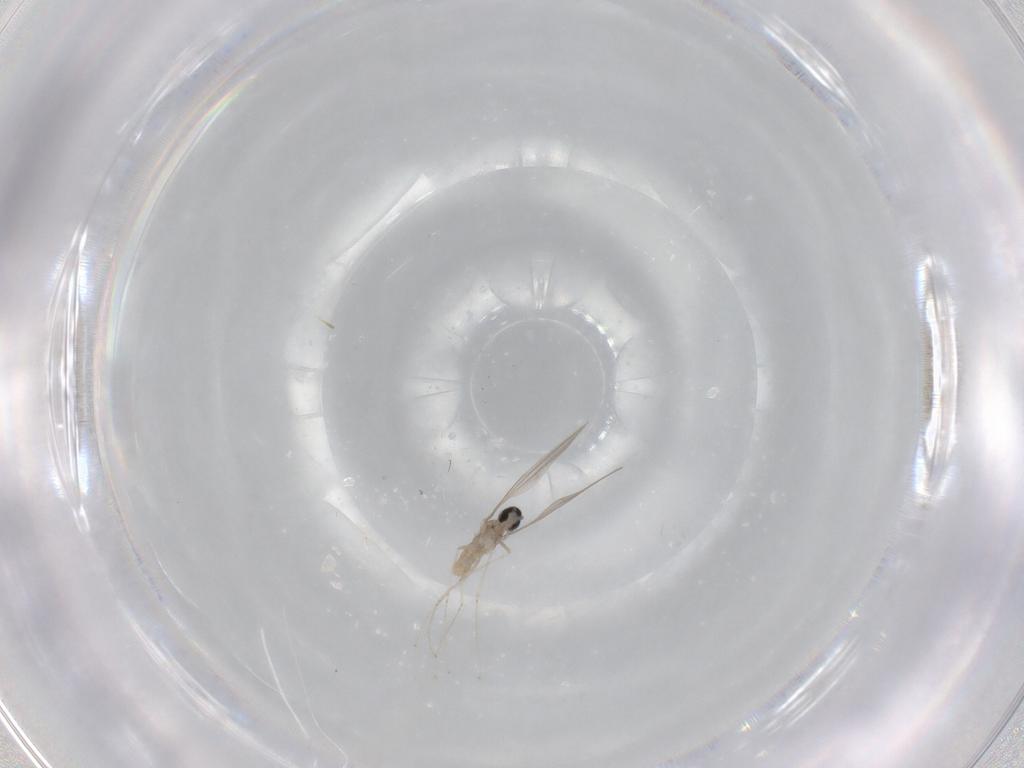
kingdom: Animalia
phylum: Arthropoda
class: Insecta
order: Diptera
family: Cecidomyiidae
